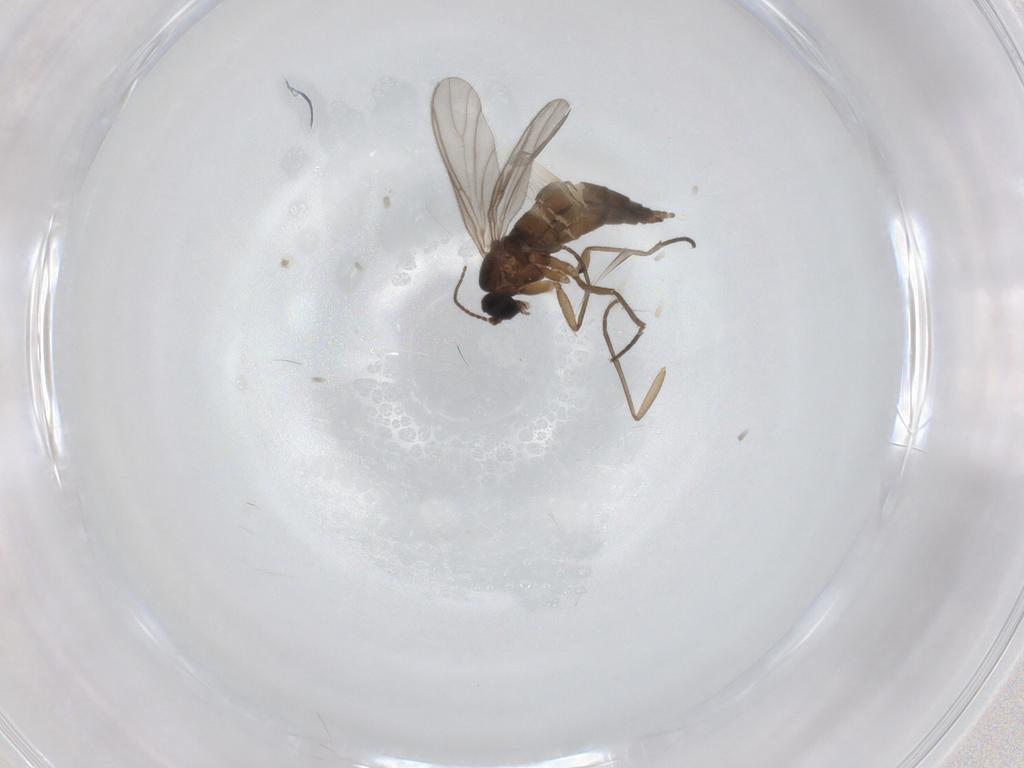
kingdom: Animalia
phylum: Arthropoda
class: Insecta
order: Diptera
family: Sciaridae
